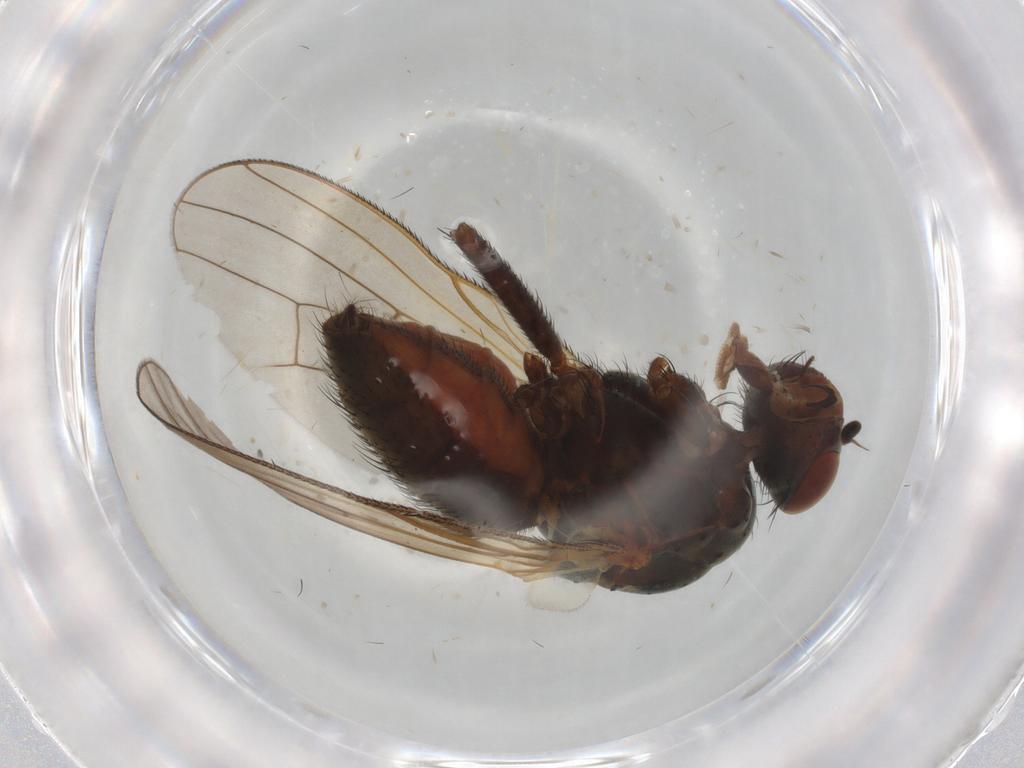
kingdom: Animalia
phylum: Arthropoda
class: Insecta
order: Diptera
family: Anthomyiidae
